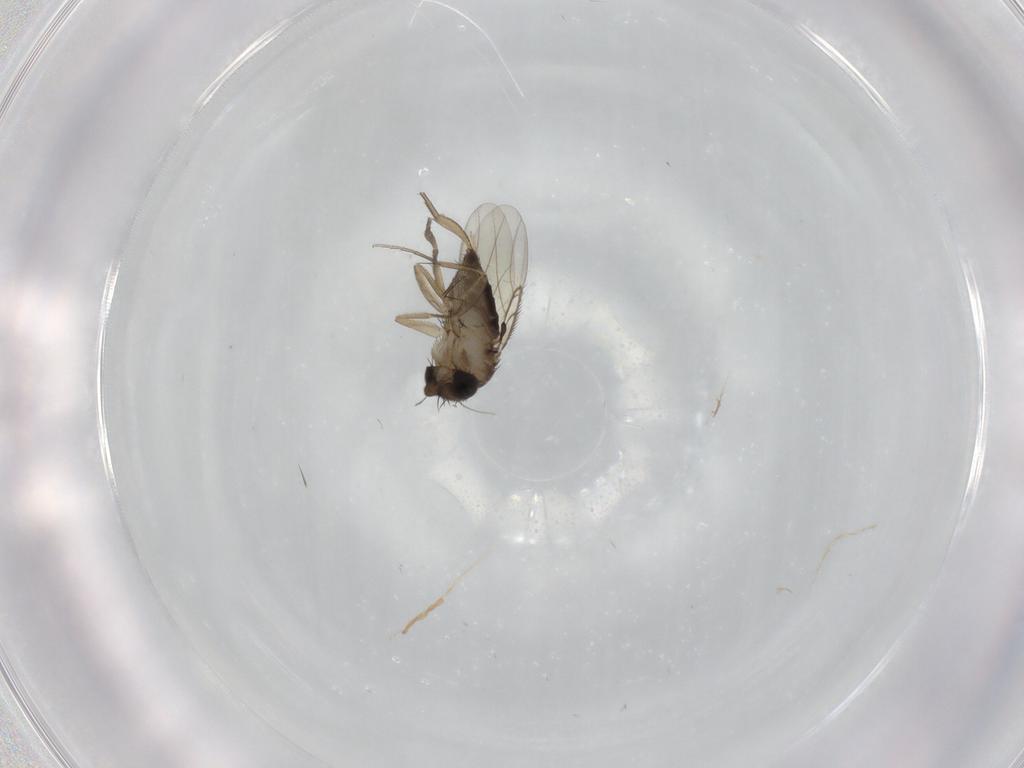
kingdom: Animalia
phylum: Arthropoda
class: Insecta
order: Diptera
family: Phoridae
